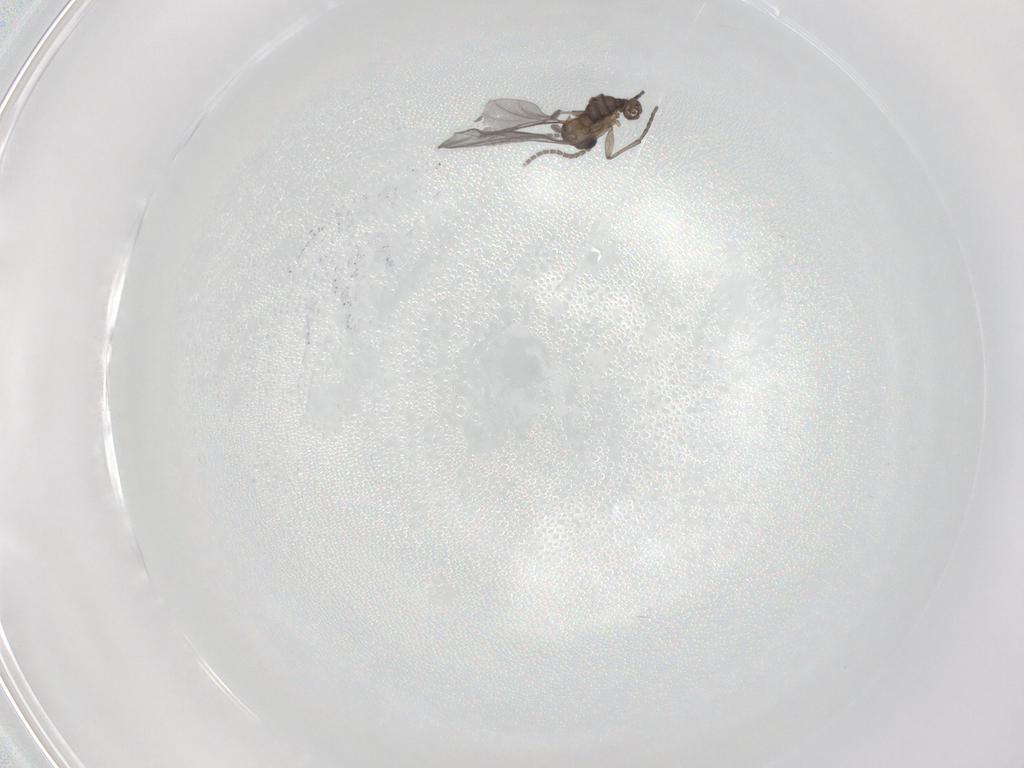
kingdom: Animalia
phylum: Arthropoda
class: Insecta
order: Diptera
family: Sciaridae
